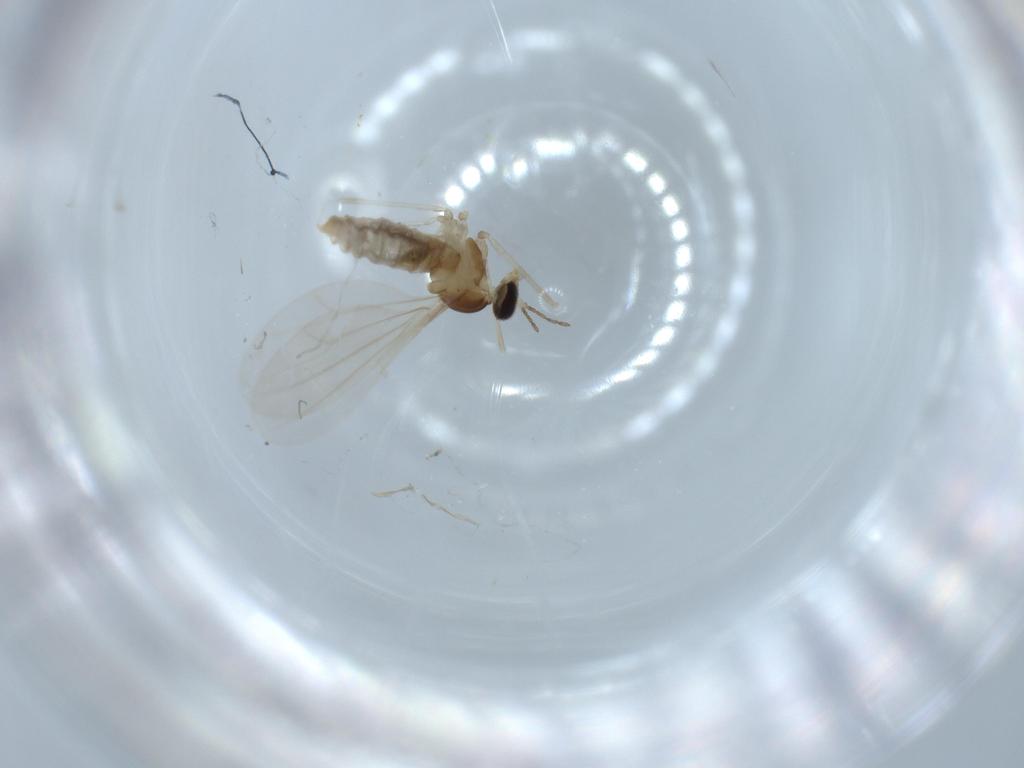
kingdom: Animalia
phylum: Arthropoda
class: Insecta
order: Diptera
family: Cecidomyiidae
